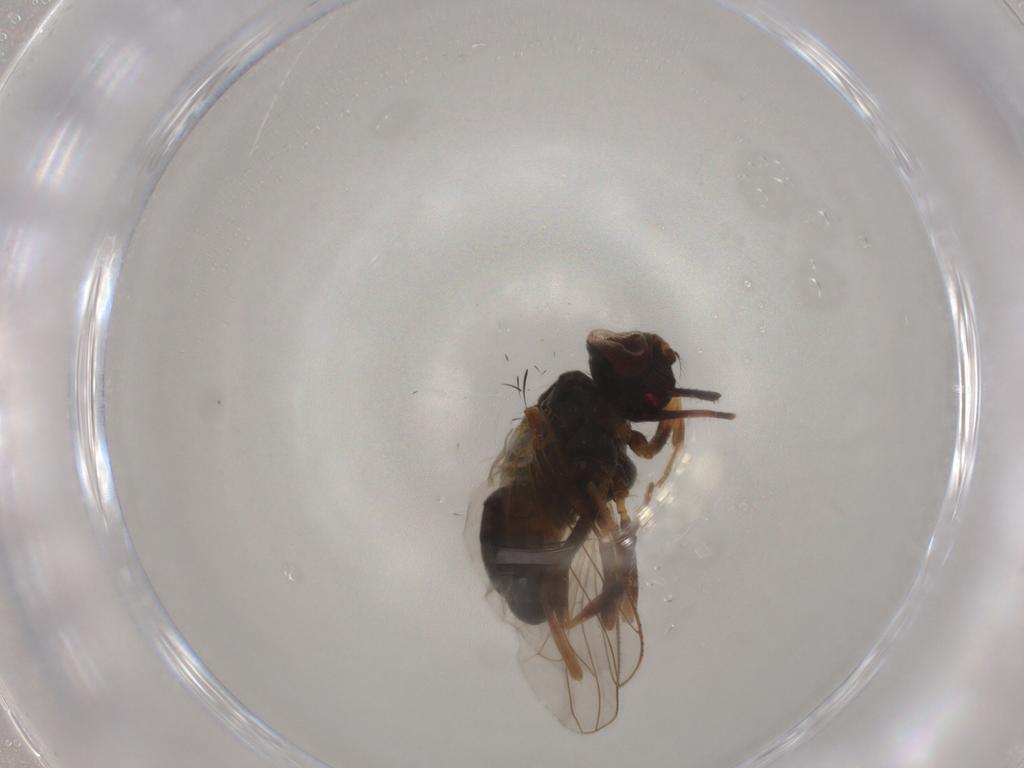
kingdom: Animalia
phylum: Arthropoda
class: Insecta
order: Diptera
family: Muscidae
